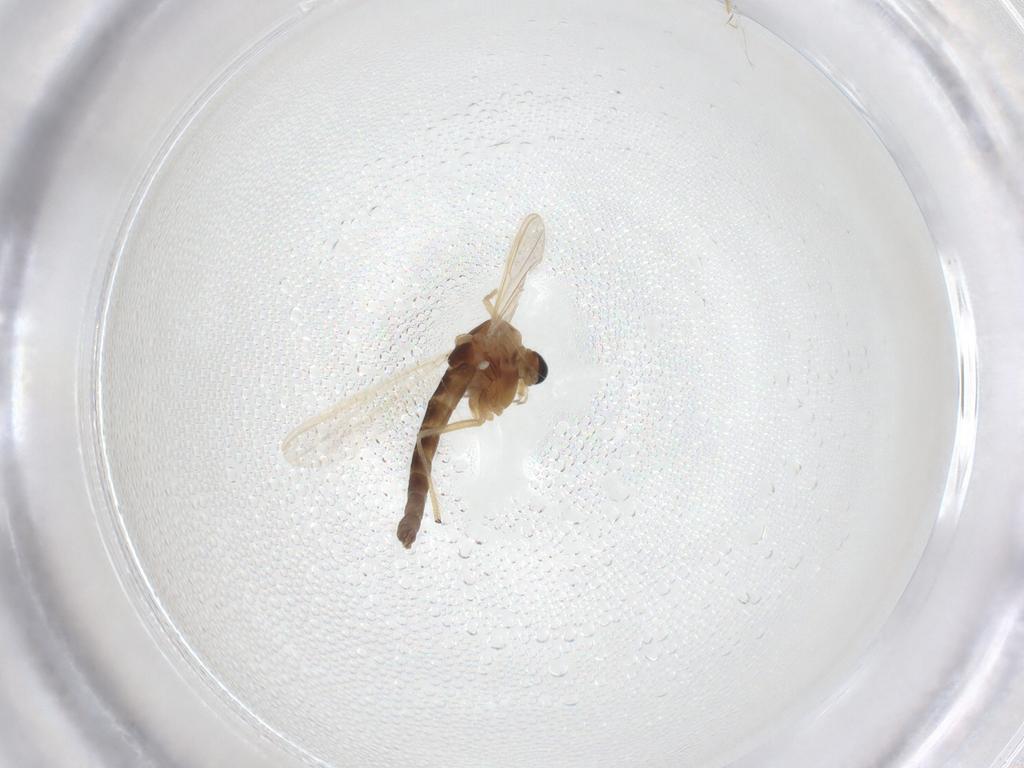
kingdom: Animalia
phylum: Arthropoda
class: Insecta
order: Diptera
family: Chironomidae
